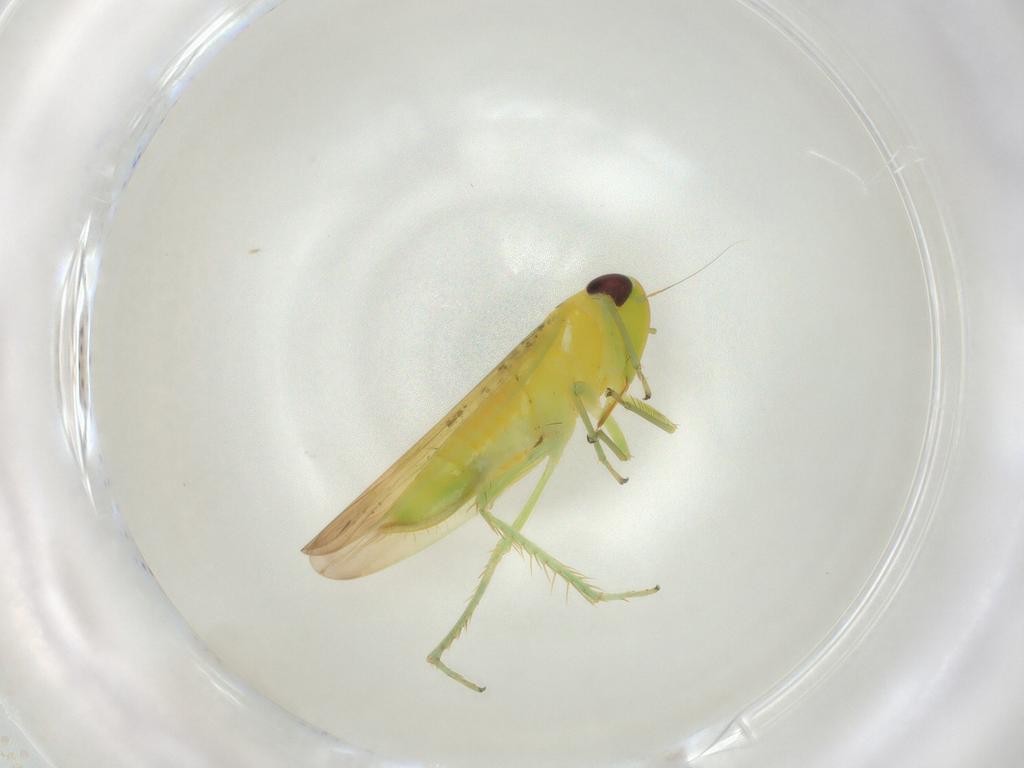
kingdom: Animalia
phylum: Arthropoda
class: Insecta
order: Hemiptera
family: Cicadellidae
